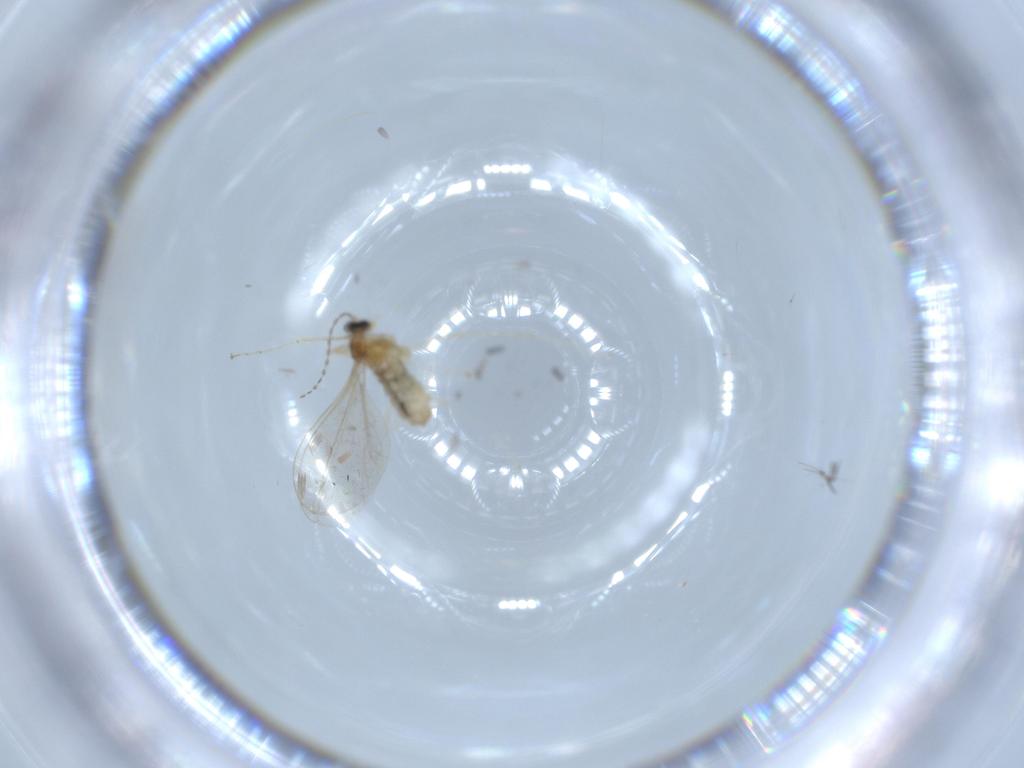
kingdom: Animalia
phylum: Arthropoda
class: Insecta
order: Diptera
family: Cecidomyiidae
